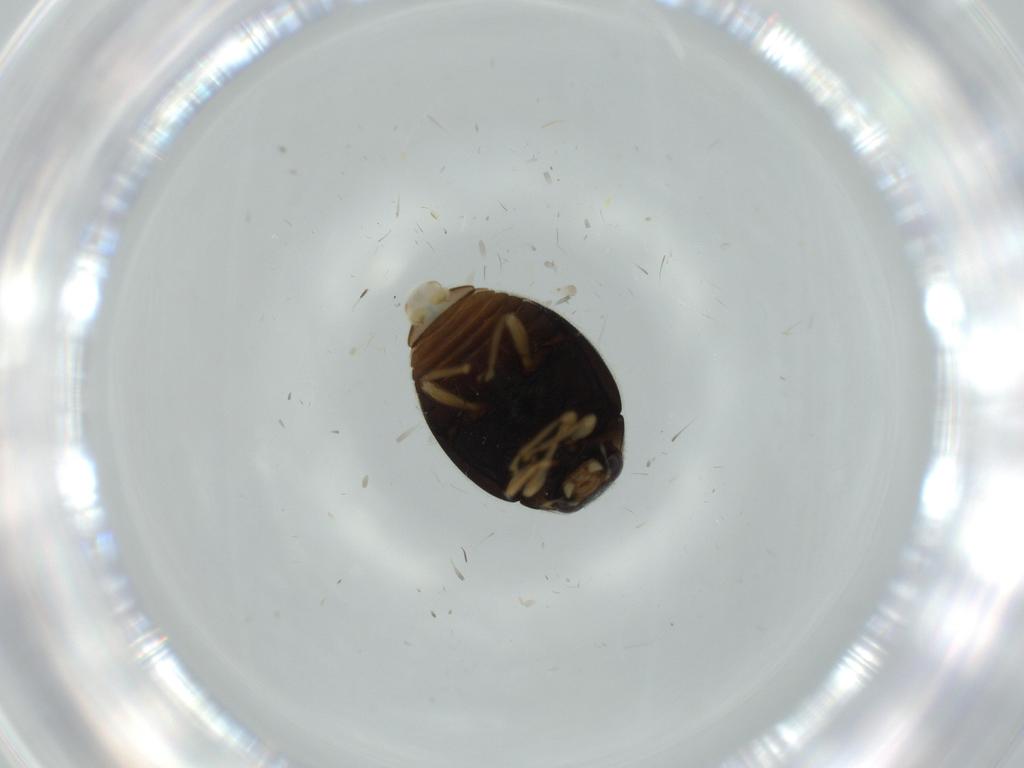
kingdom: Animalia
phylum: Arthropoda
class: Insecta
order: Coleoptera
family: Coccinellidae
